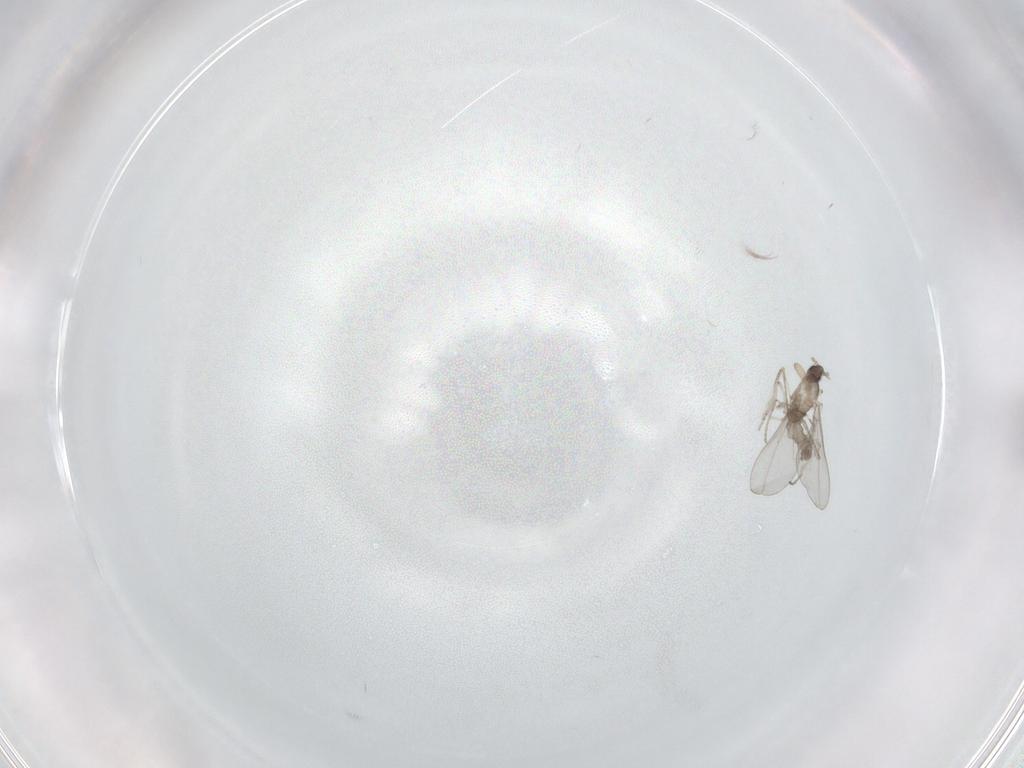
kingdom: Animalia
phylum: Arthropoda
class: Insecta
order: Diptera
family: Cecidomyiidae
